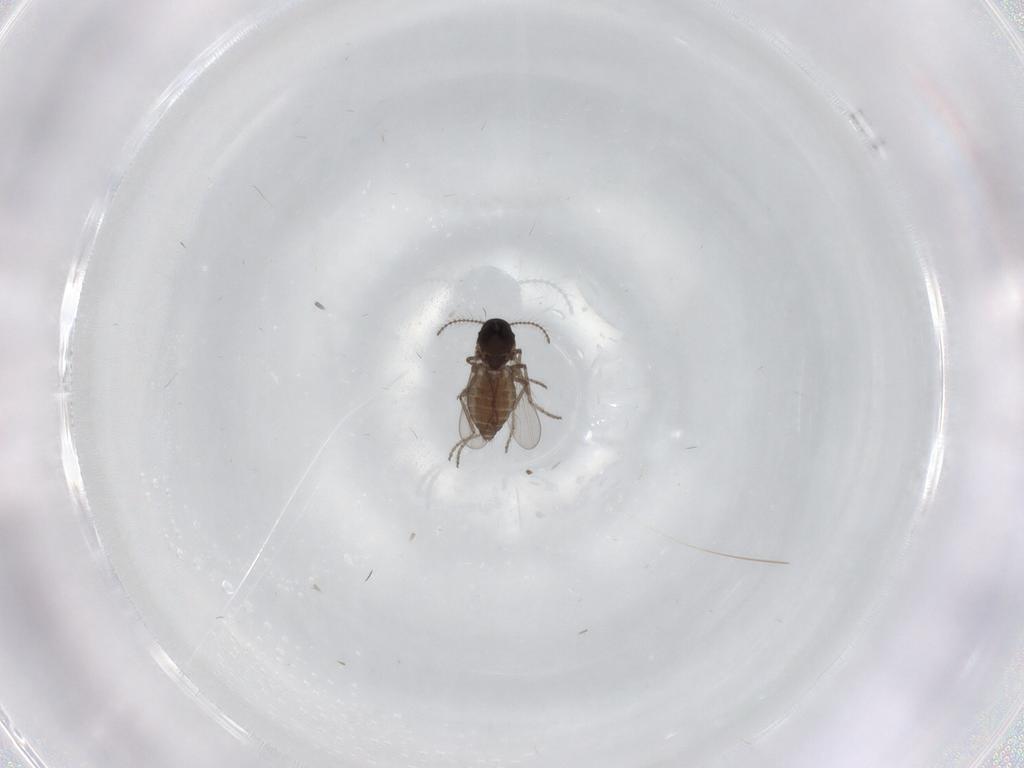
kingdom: Animalia
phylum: Arthropoda
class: Insecta
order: Diptera
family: Ceratopogonidae
